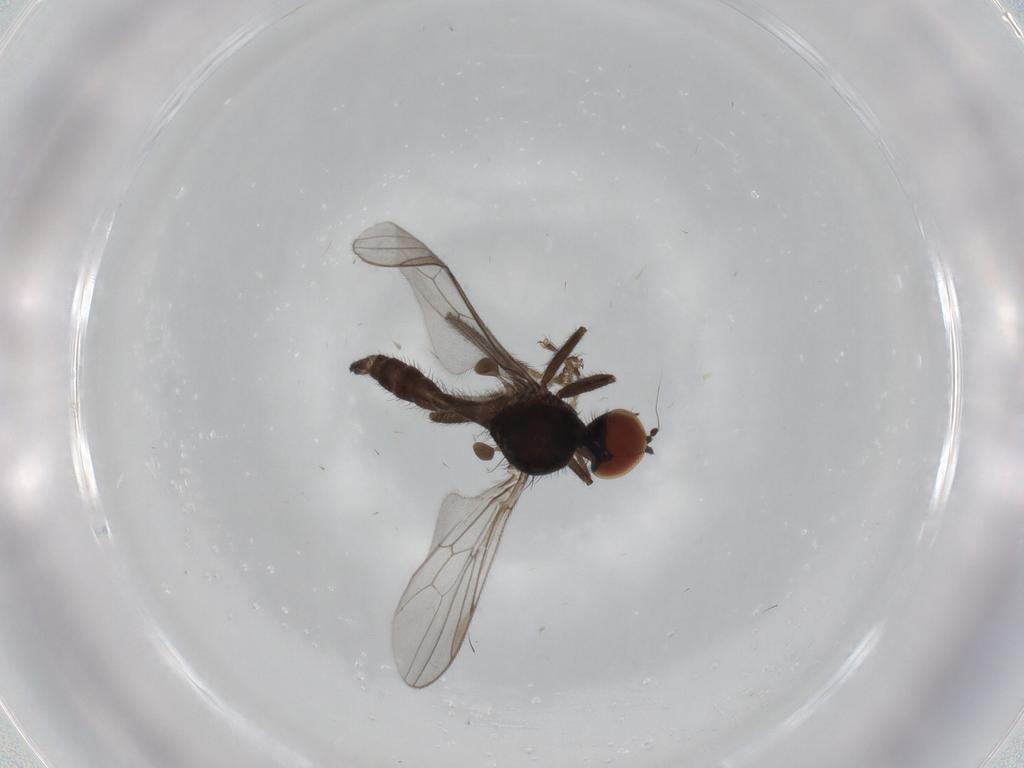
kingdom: Animalia
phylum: Arthropoda
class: Insecta
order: Diptera
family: Hybotidae
